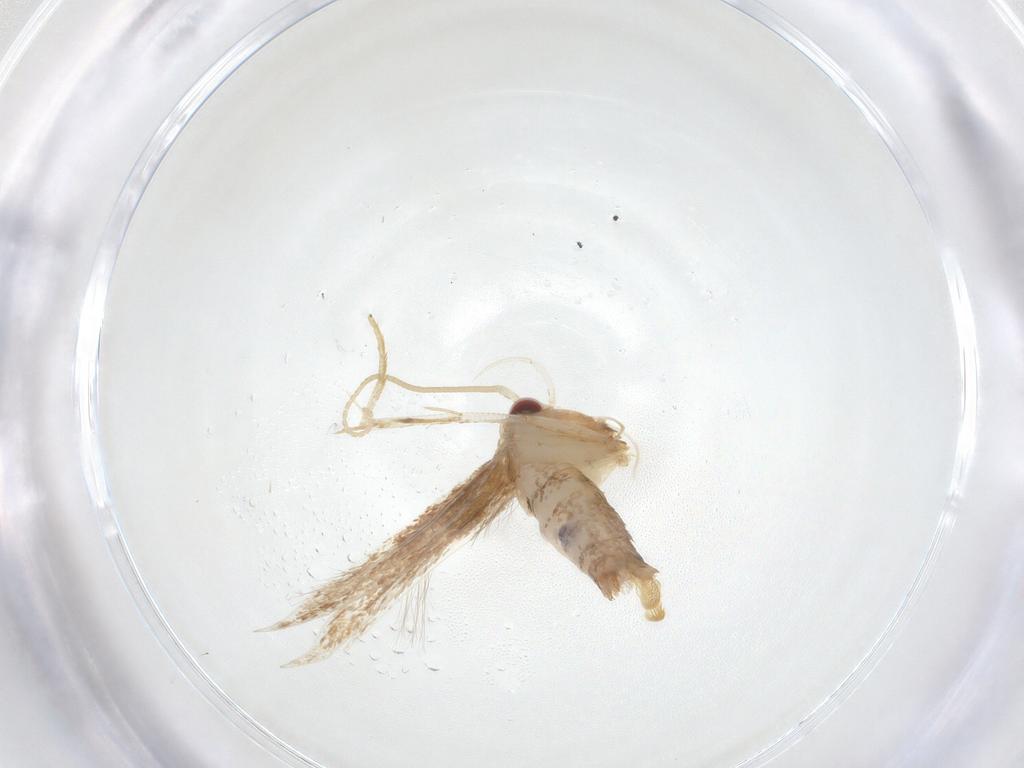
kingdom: Animalia
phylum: Arthropoda
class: Insecta
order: Lepidoptera
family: Cosmopterigidae
